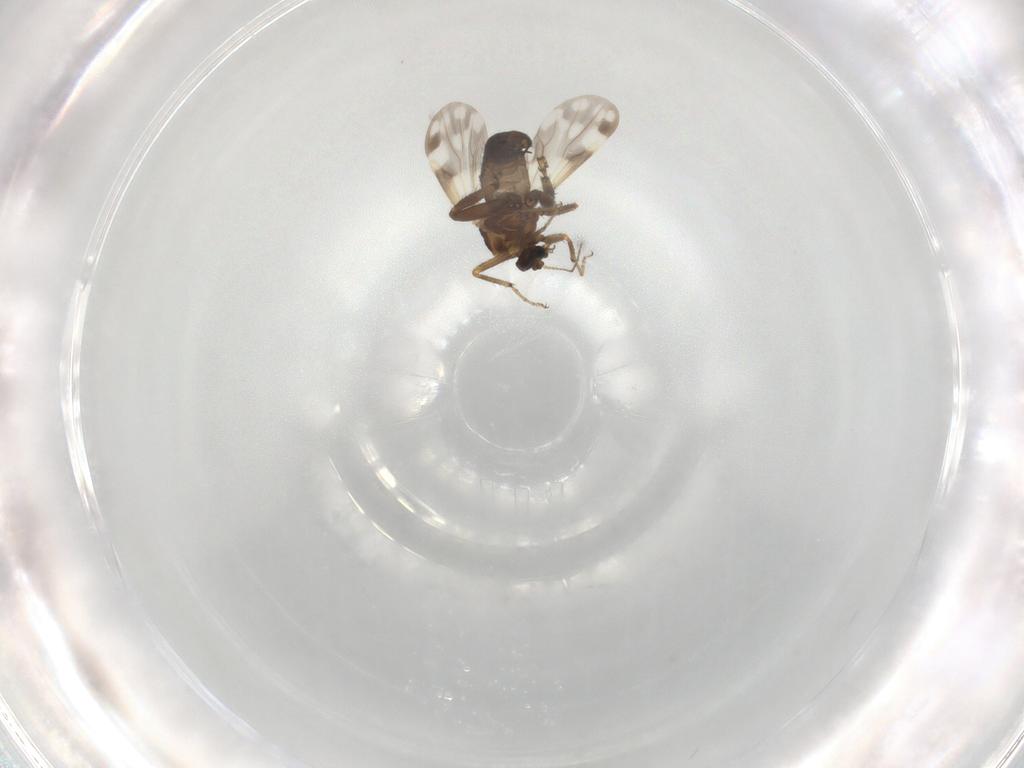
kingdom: Animalia
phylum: Arthropoda
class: Insecta
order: Diptera
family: Ceratopogonidae
